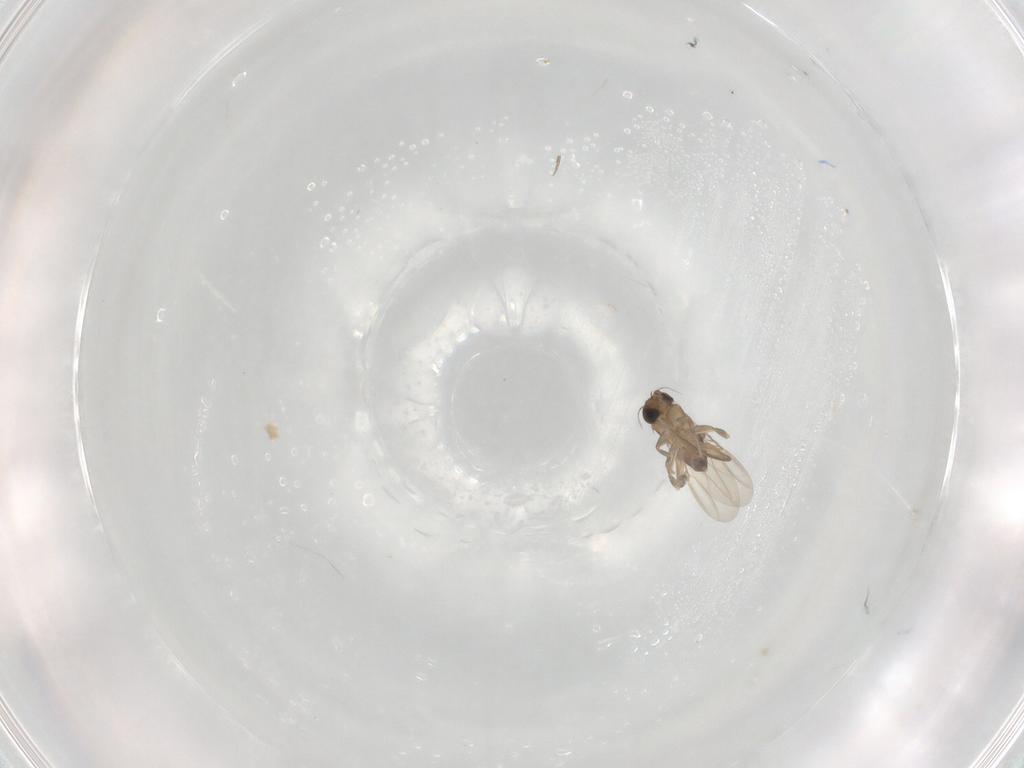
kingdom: Animalia
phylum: Arthropoda
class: Insecta
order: Diptera
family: Phoridae
